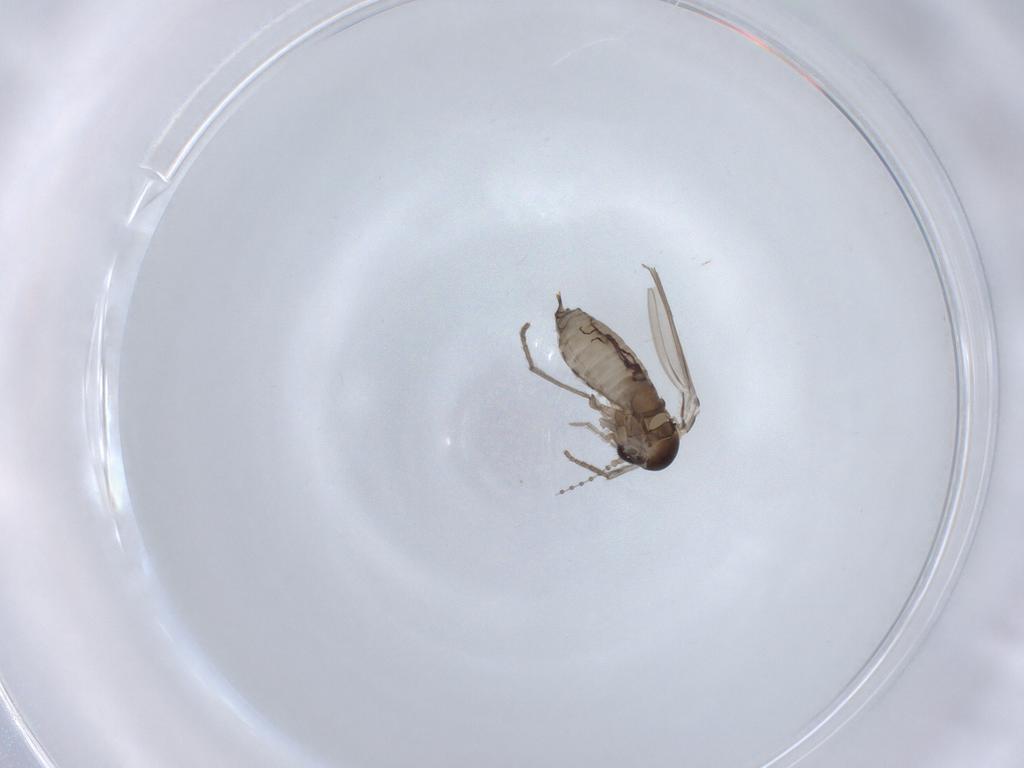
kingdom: Animalia
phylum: Arthropoda
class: Insecta
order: Diptera
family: Psychodidae
